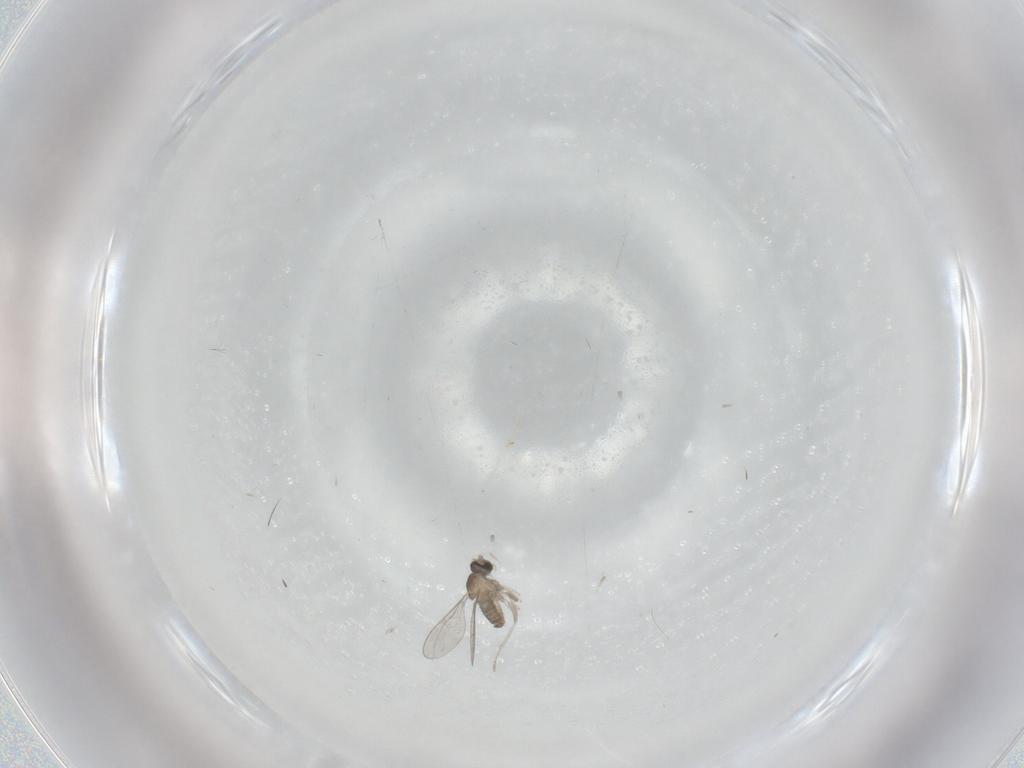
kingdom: Animalia
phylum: Arthropoda
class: Insecta
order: Diptera
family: Cecidomyiidae
